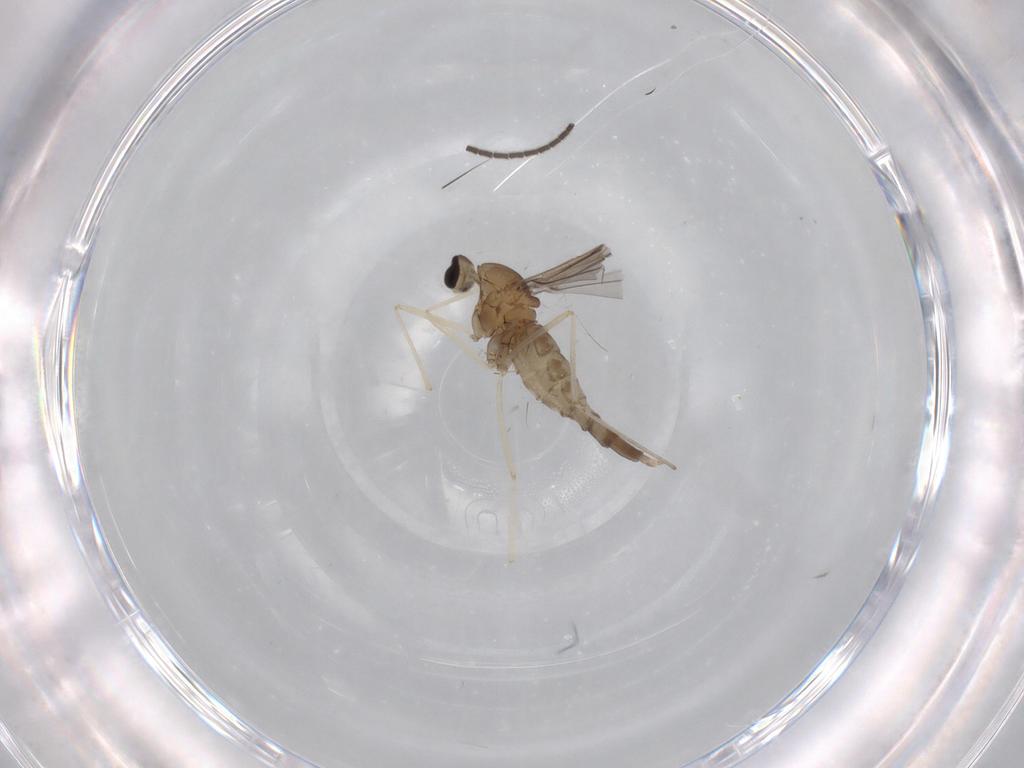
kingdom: Animalia
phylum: Arthropoda
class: Insecta
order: Diptera
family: Cecidomyiidae
